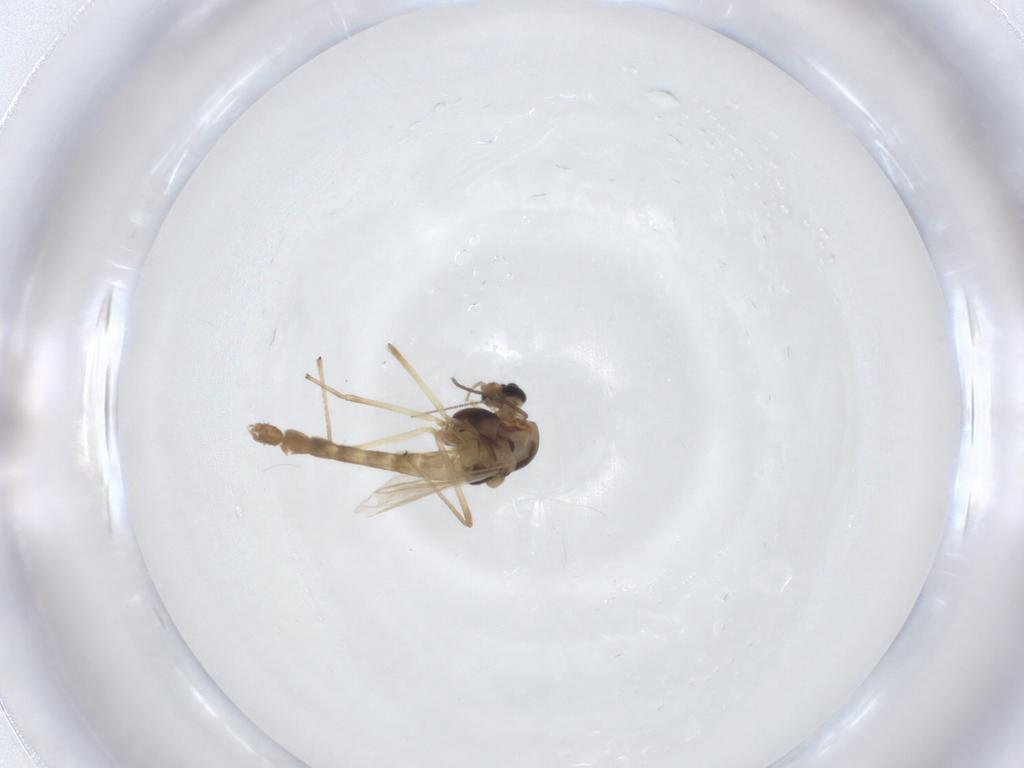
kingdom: Animalia
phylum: Arthropoda
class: Insecta
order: Diptera
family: Chironomidae
